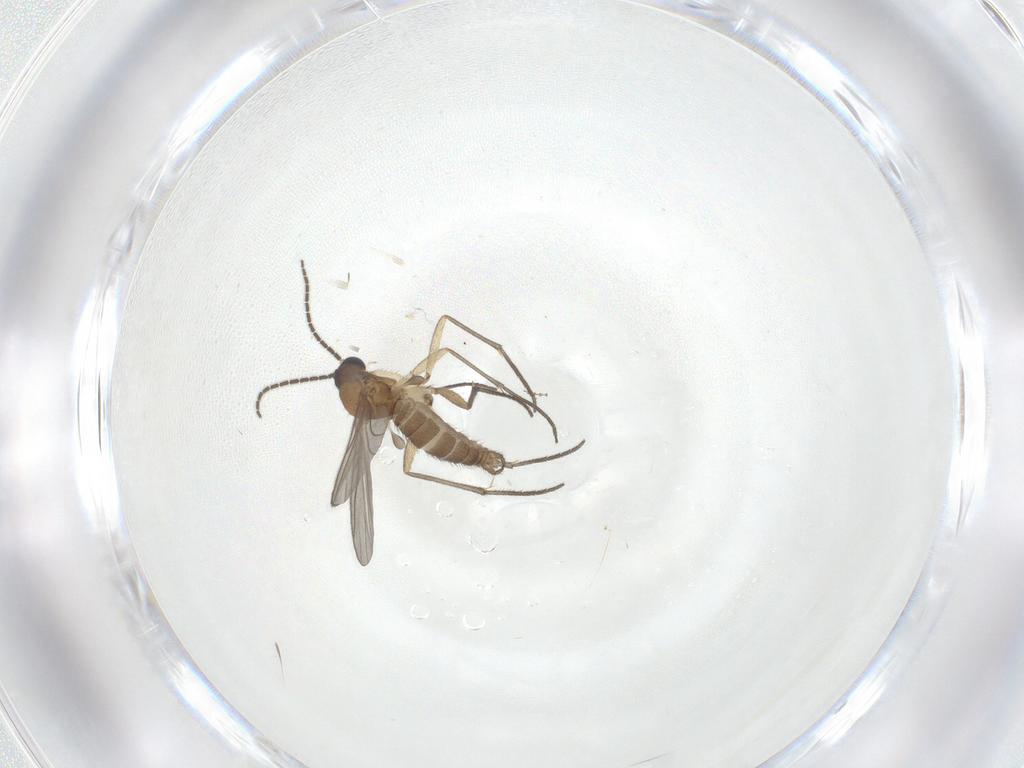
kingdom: Animalia
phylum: Arthropoda
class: Insecta
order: Diptera
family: Sciaridae
